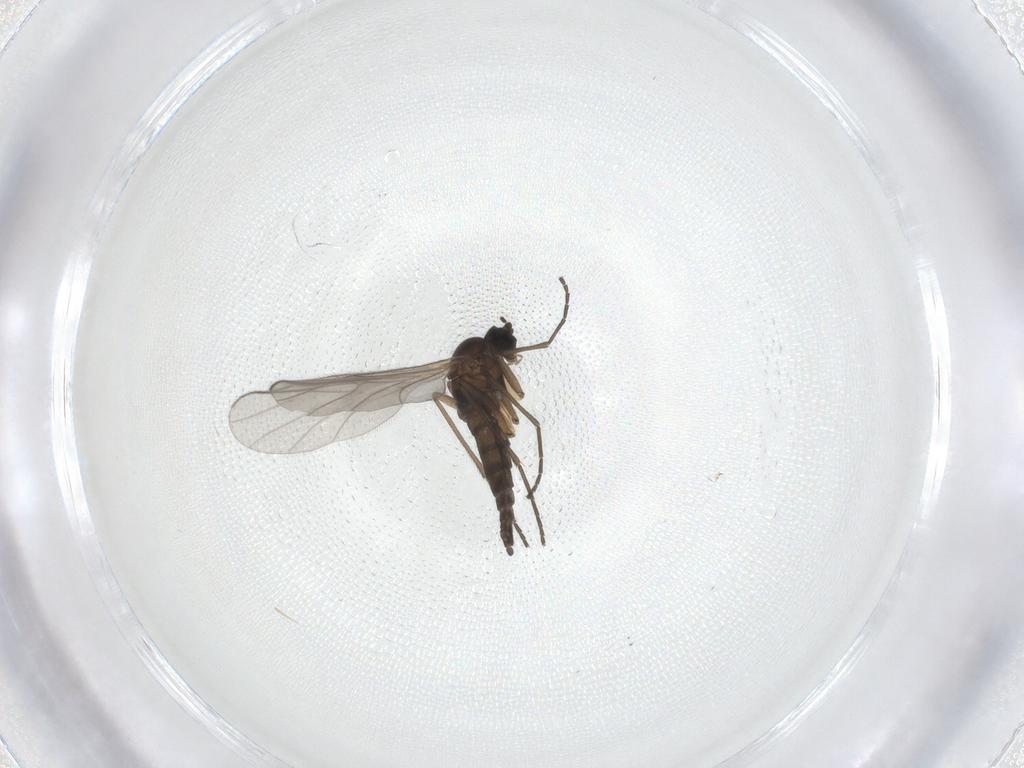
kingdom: Animalia
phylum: Arthropoda
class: Insecta
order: Diptera
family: Sciaridae
